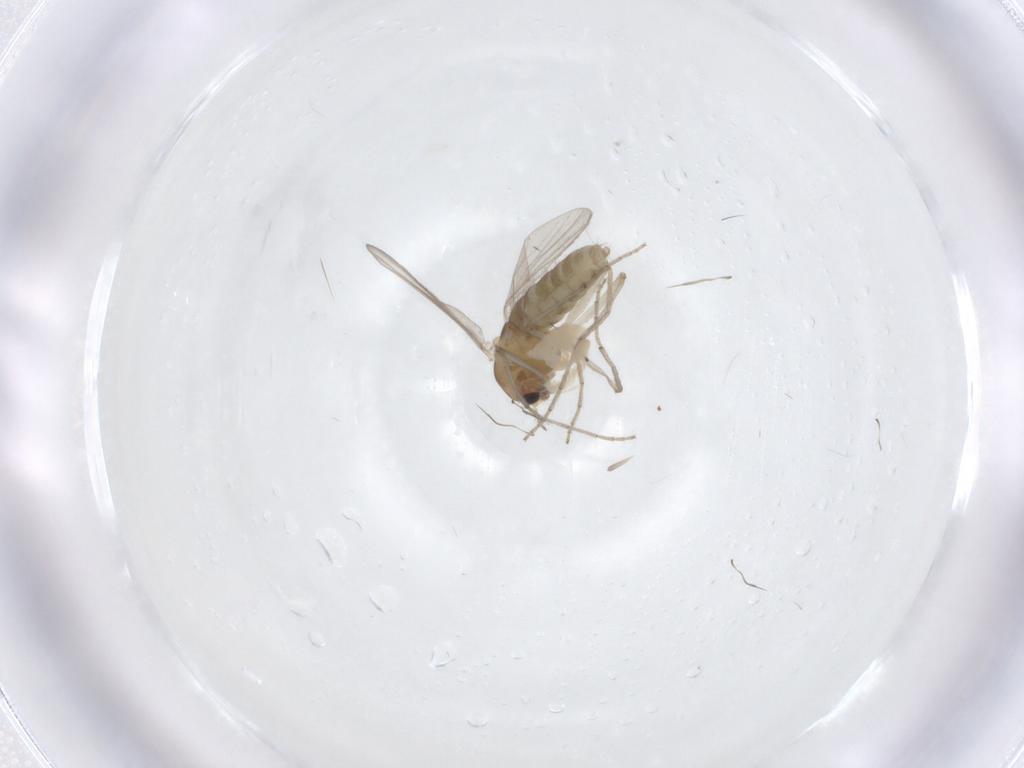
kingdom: Animalia
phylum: Arthropoda
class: Insecta
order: Diptera
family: Chironomidae
